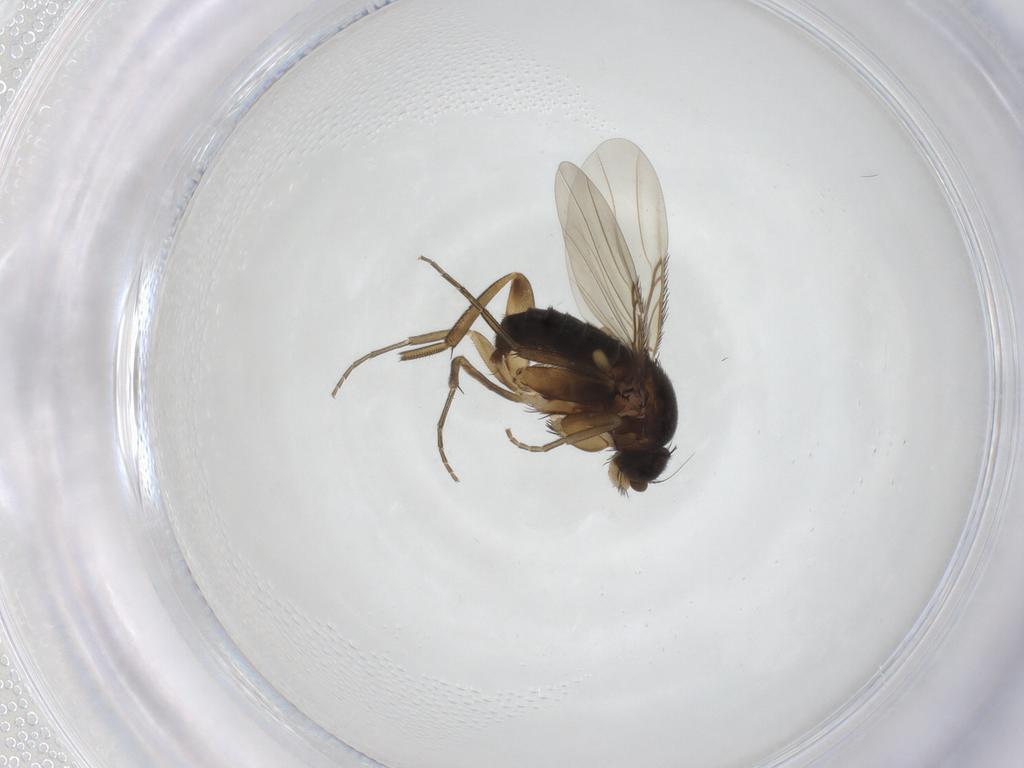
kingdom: Animalia
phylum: Arthropoda
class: Insecta
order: Diptera
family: Phoridae
